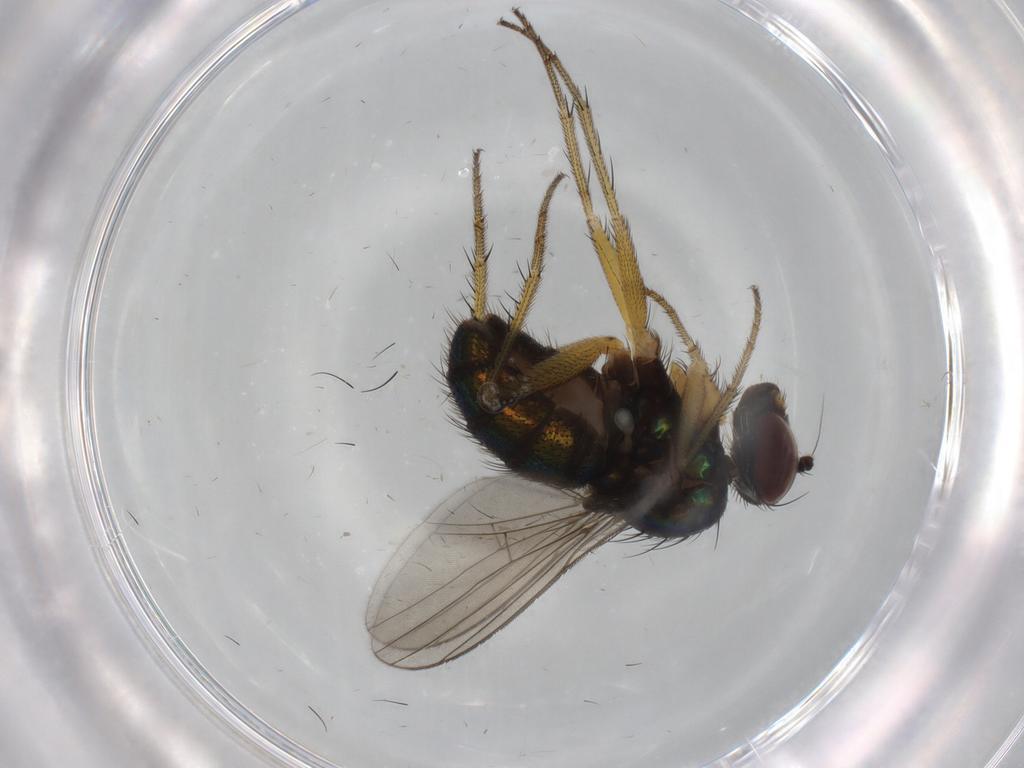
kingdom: Animalia
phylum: Arthropoda
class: Insecta
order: Diptera
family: Dolichopodidae
